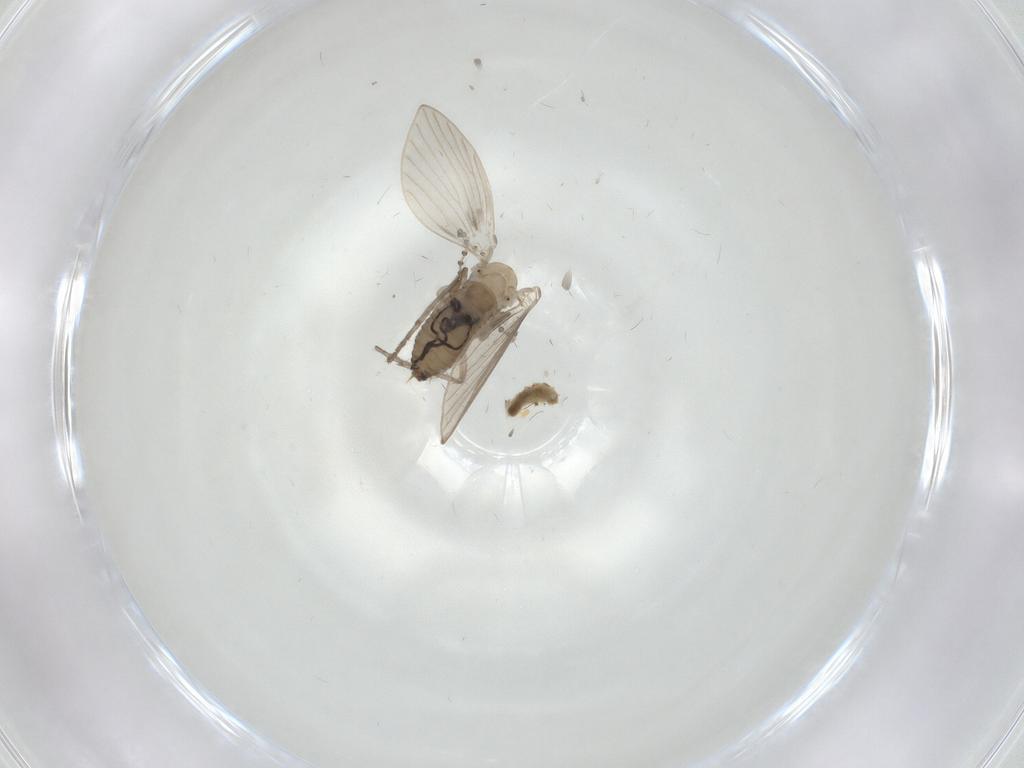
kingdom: Animalia
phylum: Arthropoda
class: Insecta
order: Diptera
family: Psychodidae
